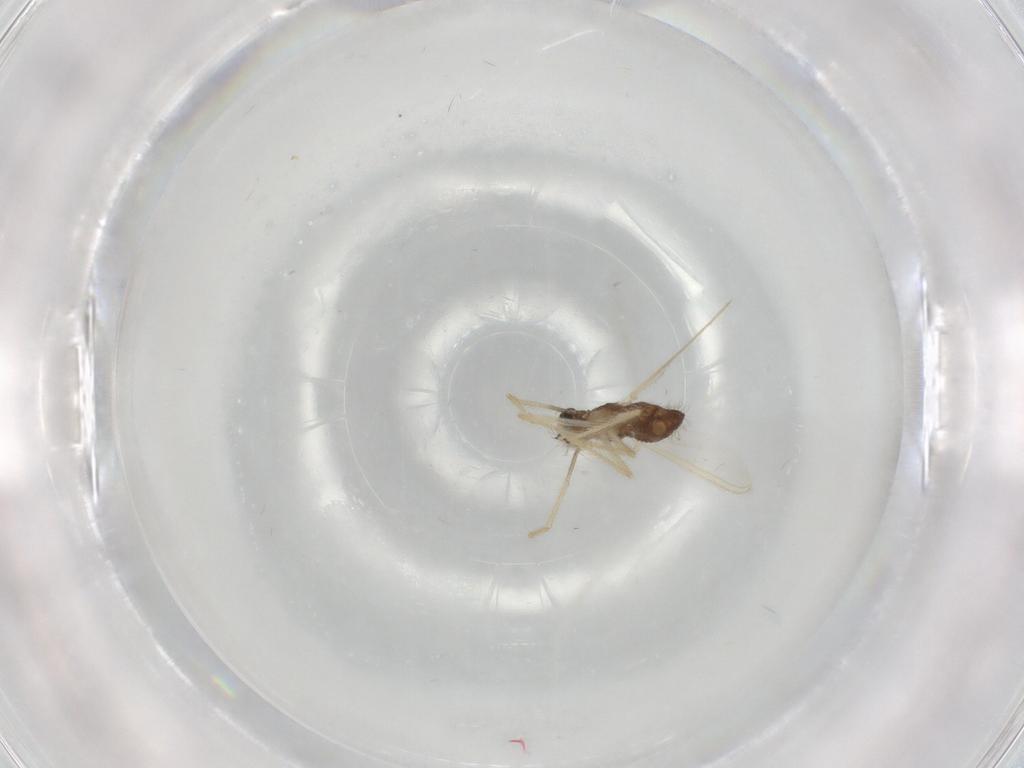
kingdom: Animalia
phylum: Arthropoda
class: Insecta
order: Diptera
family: Chironomidae
